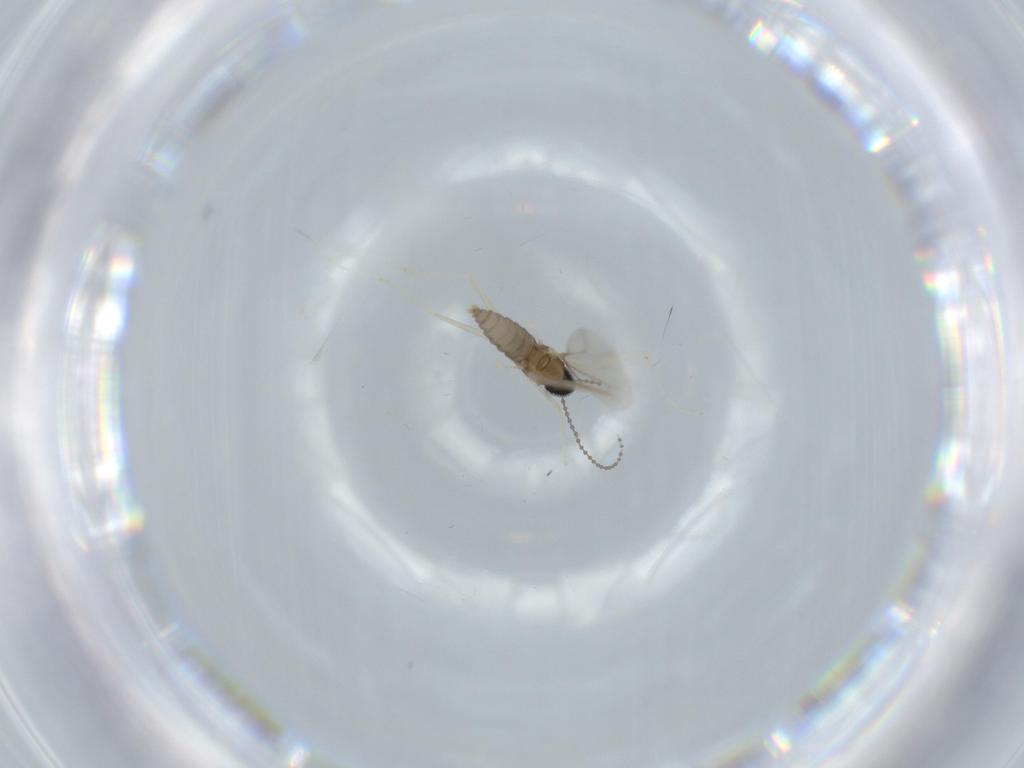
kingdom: Animalia
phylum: Arthropoda
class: Insecta
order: Diptera
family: Cecidomyiidae
